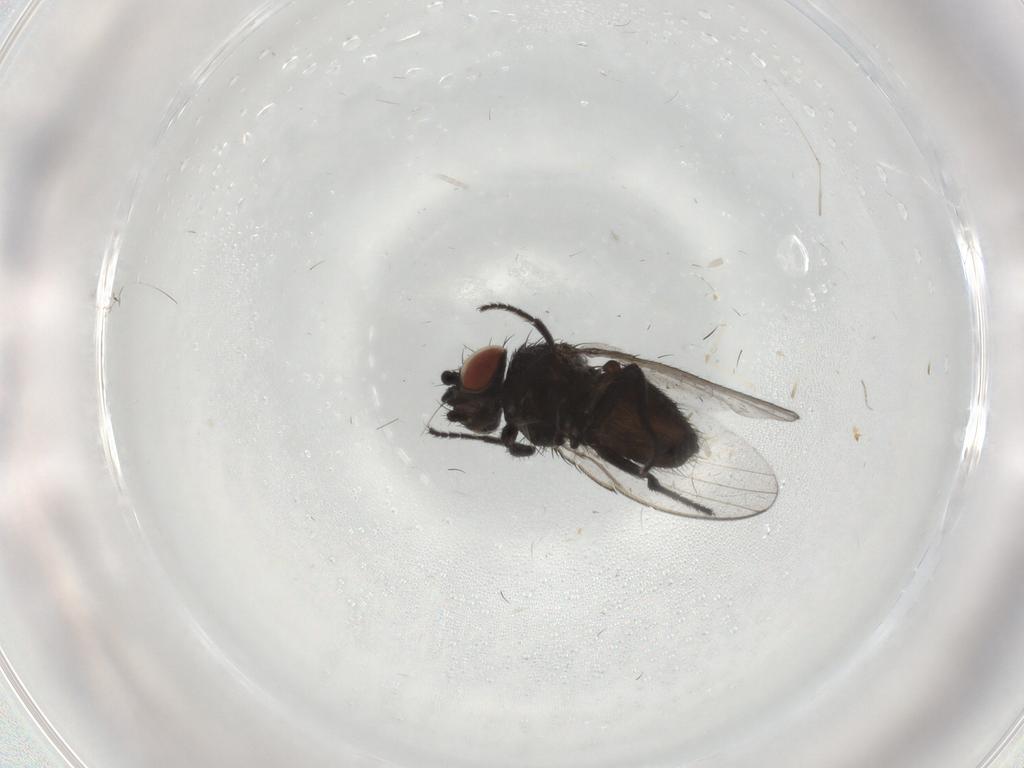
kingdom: Animalia
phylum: Arthropoda
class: Insecta
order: Diptera
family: Milichiidae
